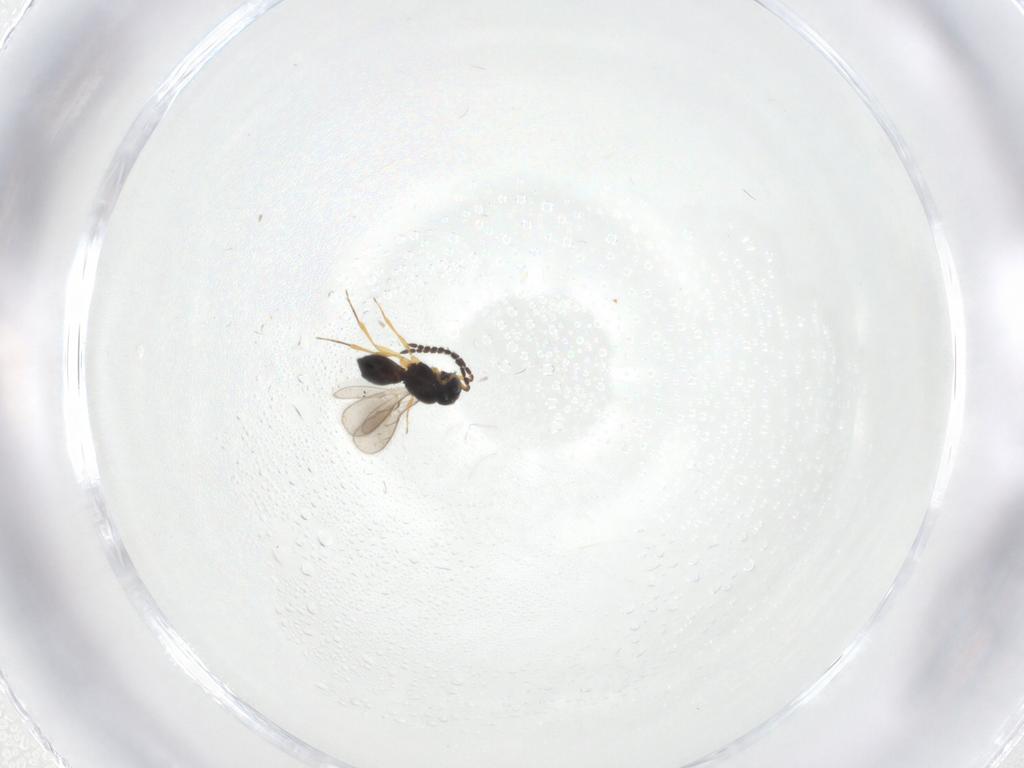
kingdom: Animalia
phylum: Arthropoda
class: Insecta
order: Hymenoptera
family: Scelionidae
